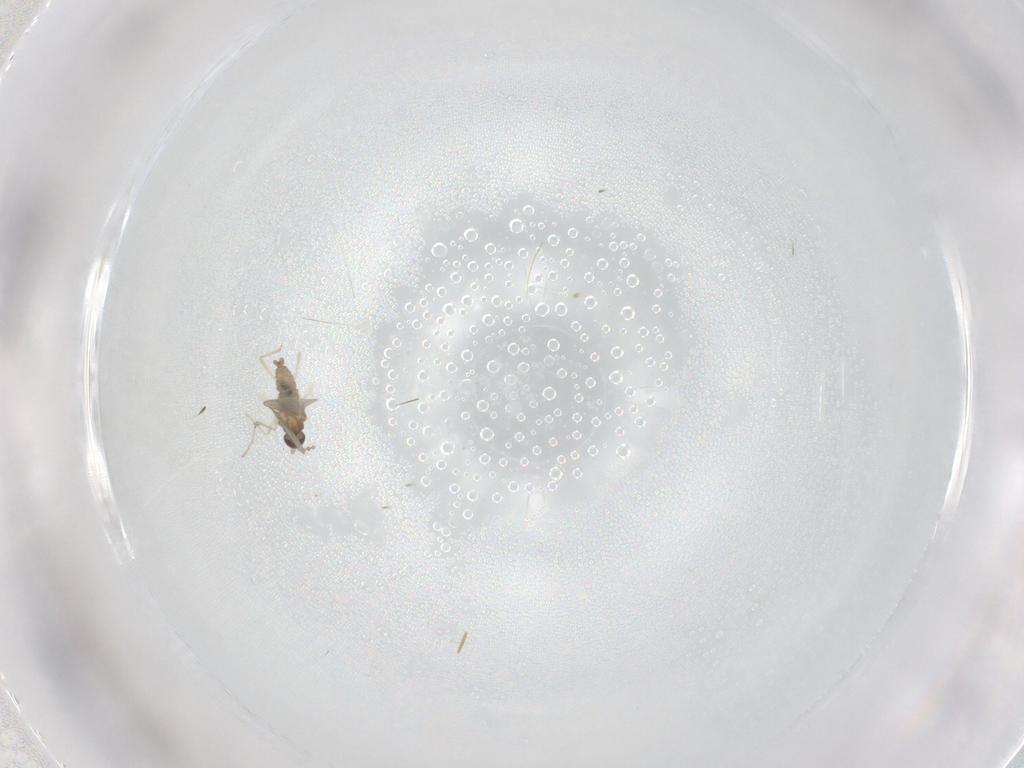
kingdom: Animalia
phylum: Arthropoda
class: Insecta
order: Diptera
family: Cecidomyiidae
